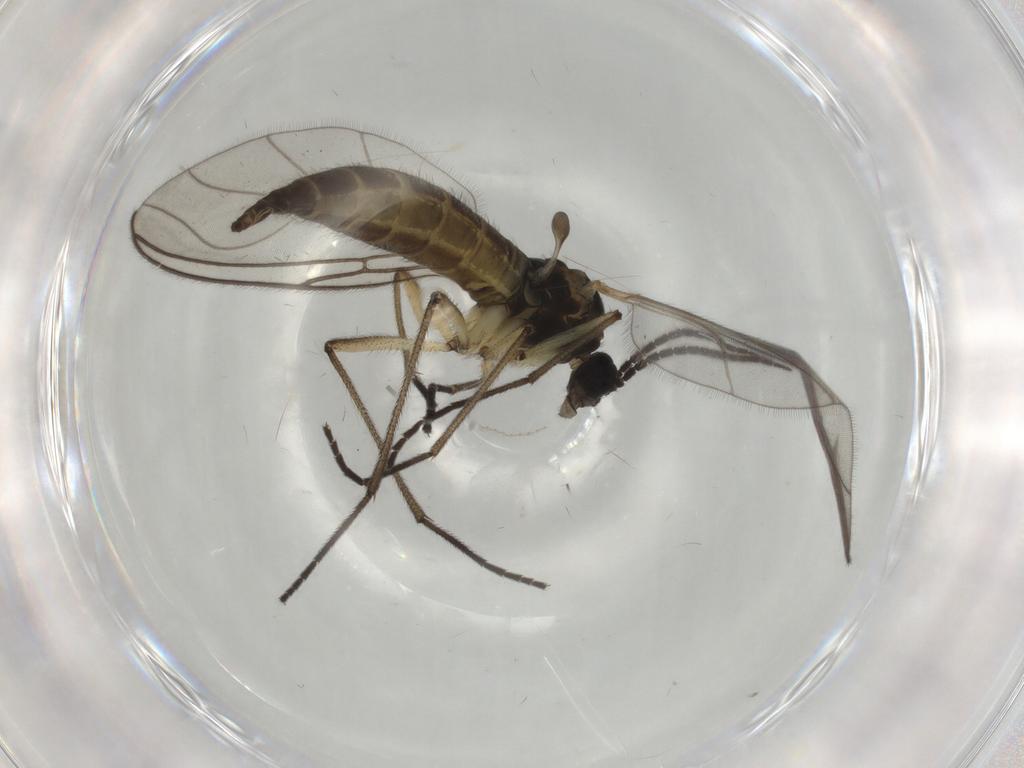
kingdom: Animalia
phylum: Arthropoda
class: Insecta
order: Diptera
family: Sciaridae
